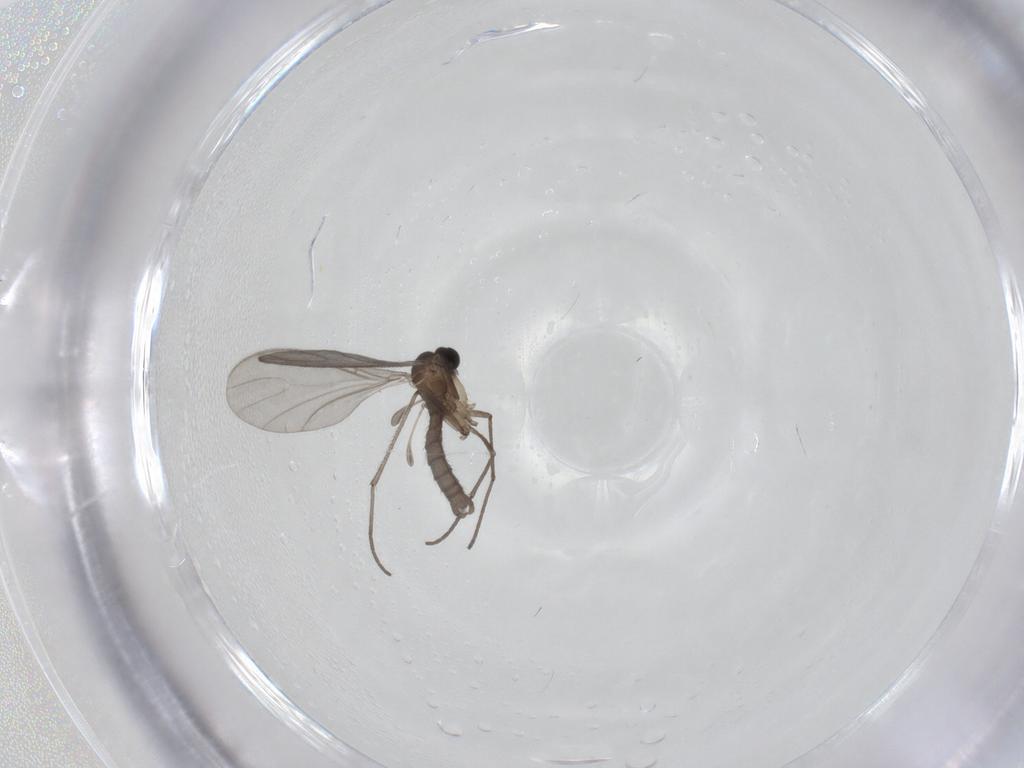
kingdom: Animalia
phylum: Arthropoda
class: Insecta
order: Diptera
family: Sciaridae
